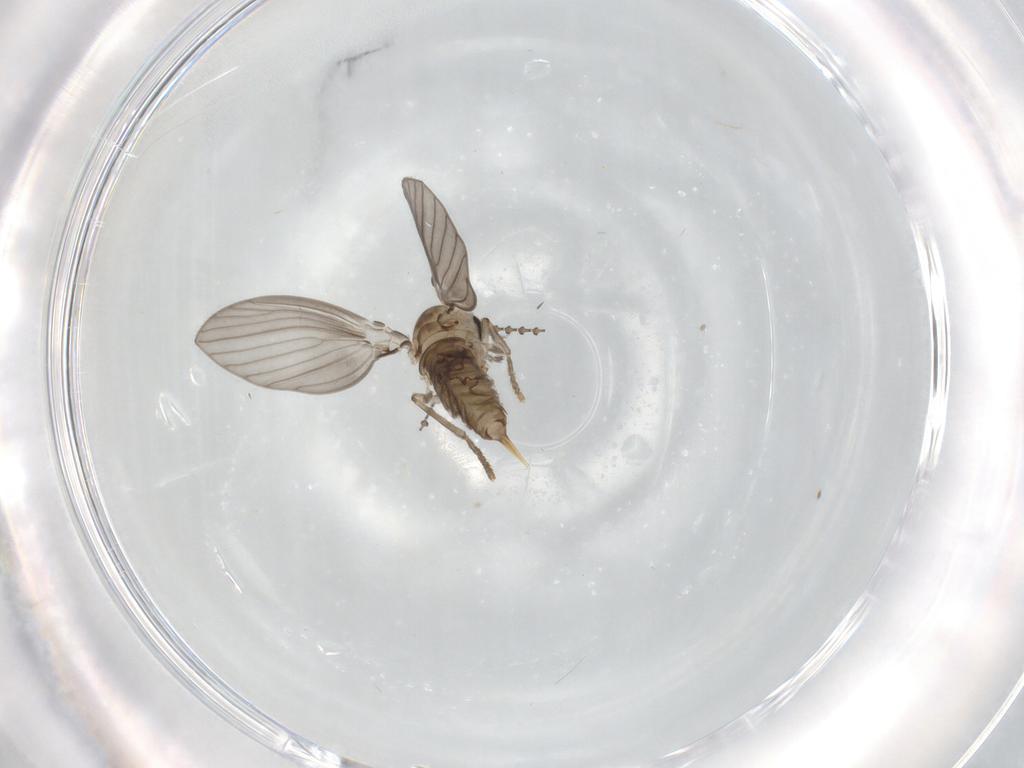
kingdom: Animalia
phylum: Arthropoda
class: Insecta
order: Diptera
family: Psychodidae
